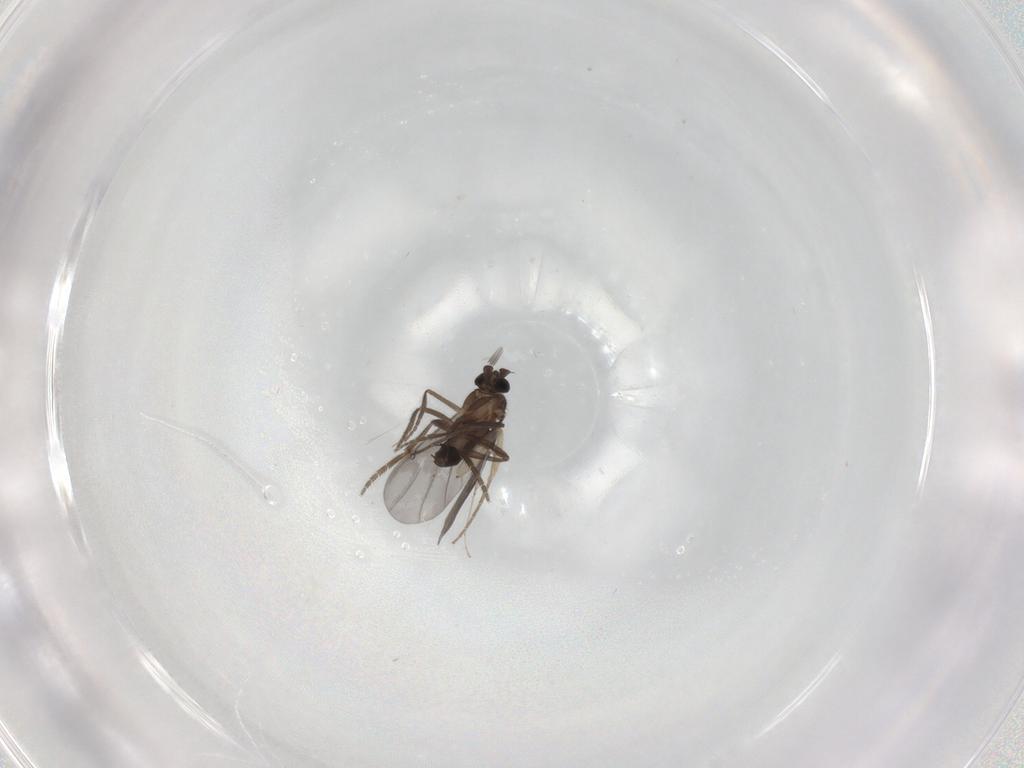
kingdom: Animalia
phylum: Arthropoda
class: Insecta
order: Diptera
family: Phoridae
